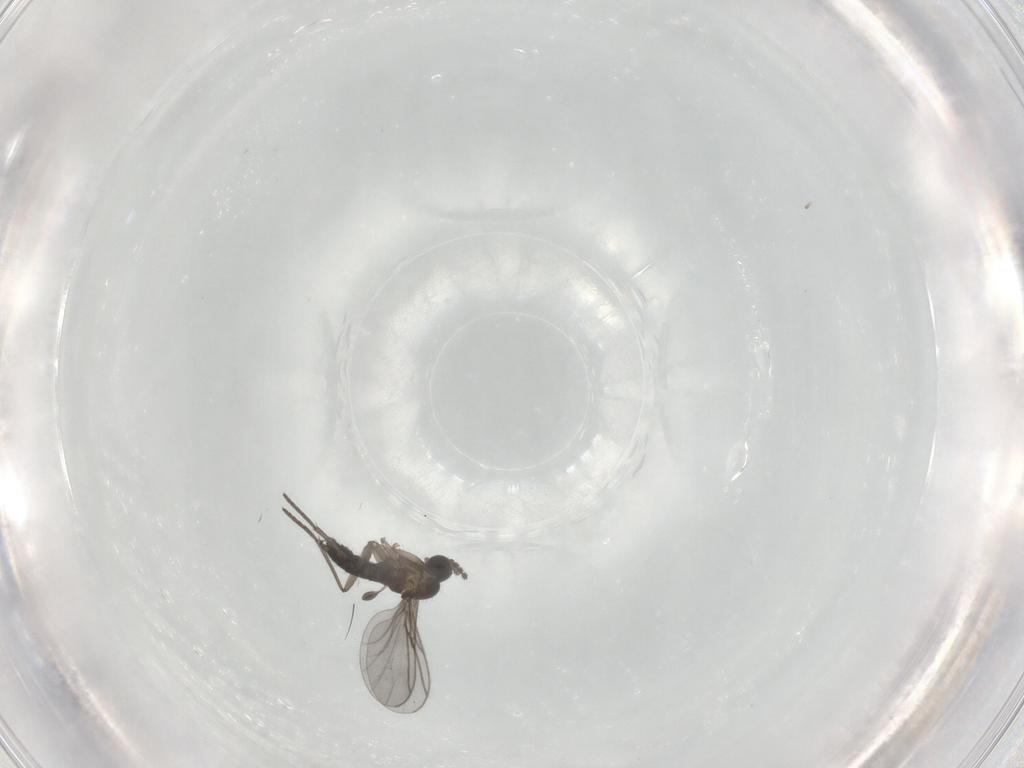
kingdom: Animalia
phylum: Arthropoda
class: Insecta
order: Diptera
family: Sciaridae
